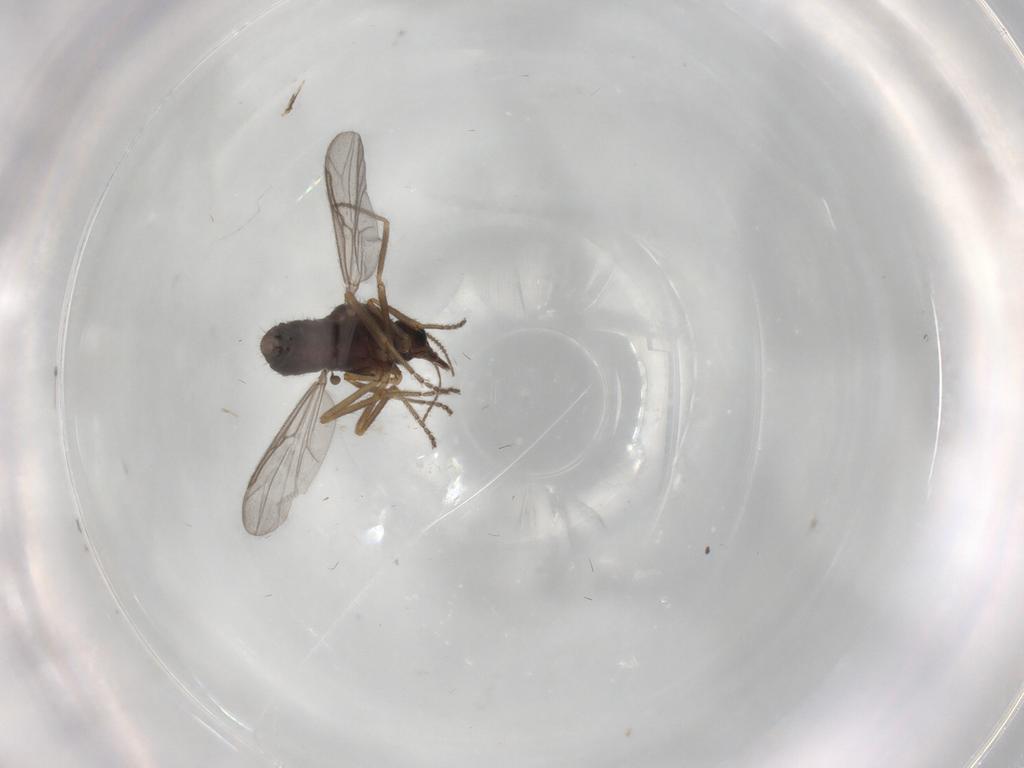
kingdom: Animalia
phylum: Arthropoda
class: Insecta
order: Diptera
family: Ceratopogonidae
